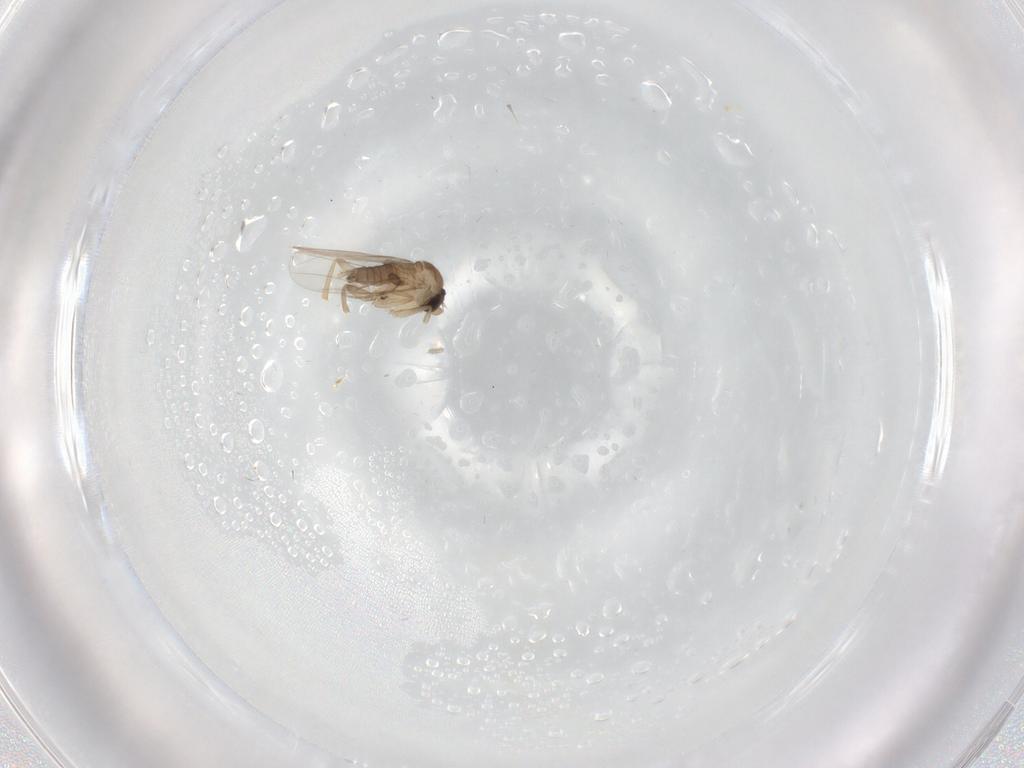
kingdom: Animalia
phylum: Arthropoda
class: Insecta
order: Diptera
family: Phoridae
